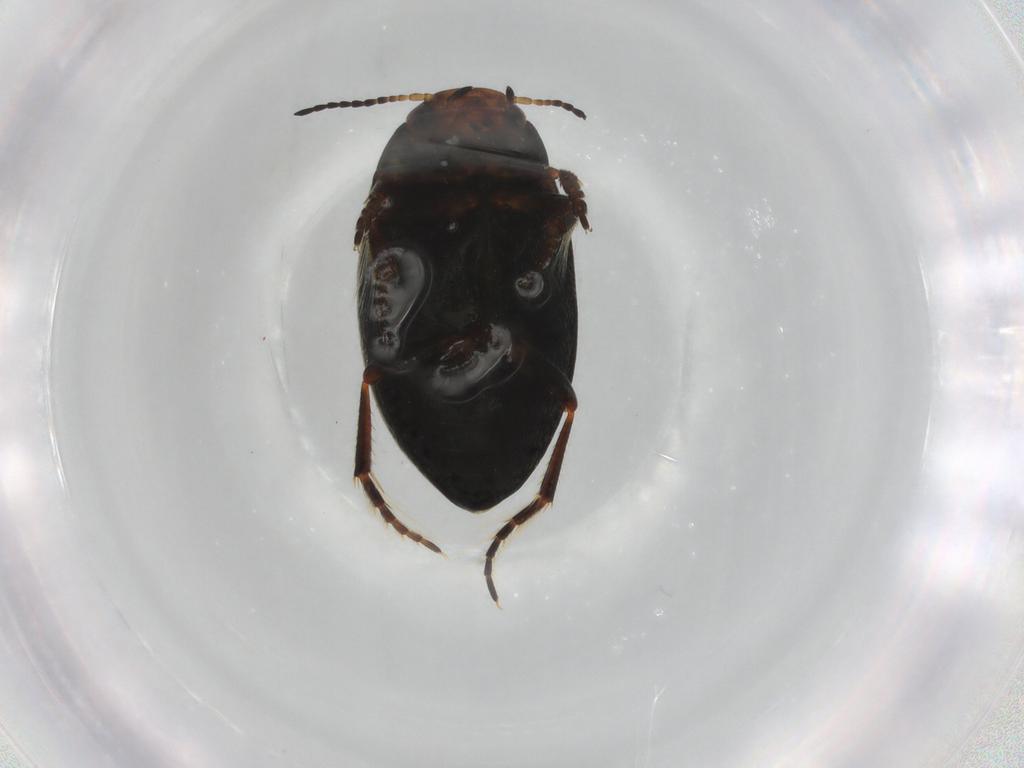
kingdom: Animalia
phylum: Arthropoda
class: Insecta
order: Coleoptera
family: Dytiscidae
